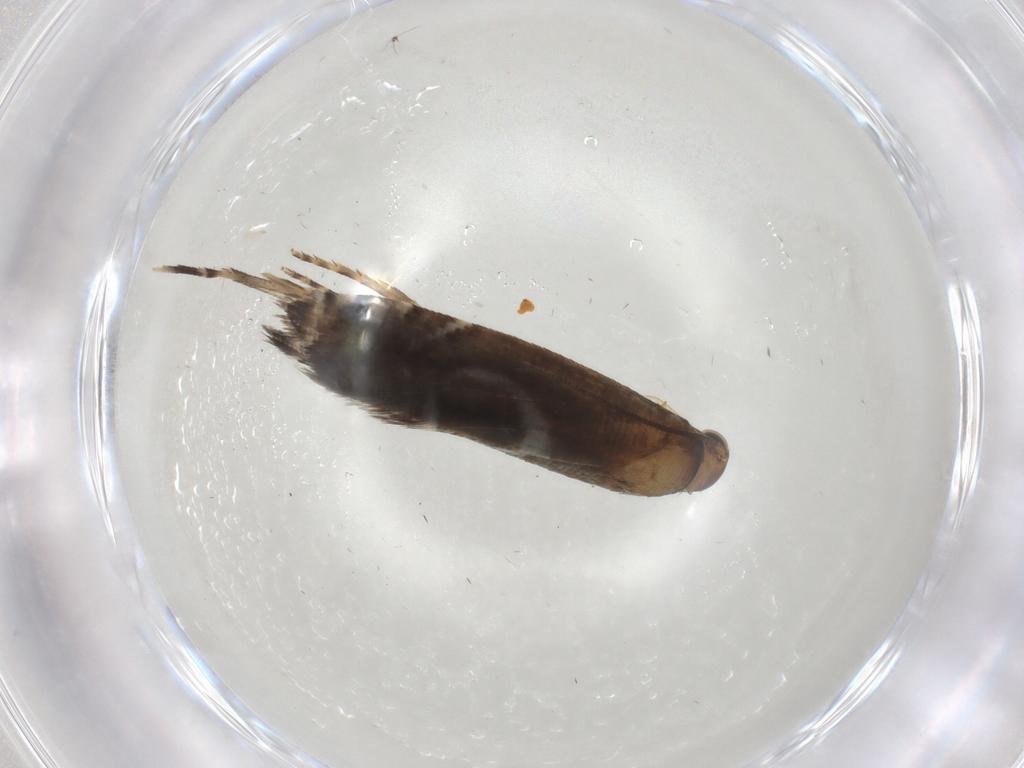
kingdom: Animalia
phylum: Arthropoda
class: Insecta
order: Lepidoptera
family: Glyphipterigidae
